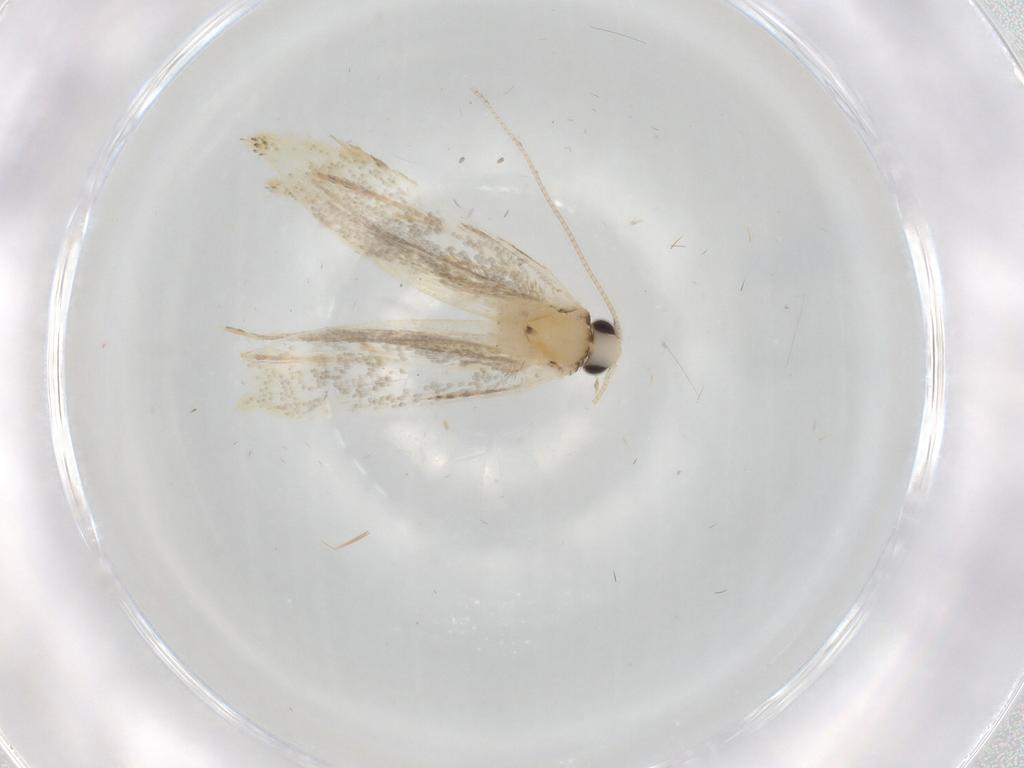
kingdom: Animalia
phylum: Arthropoda
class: Insecta
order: Lepidoptera
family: Tineidae
